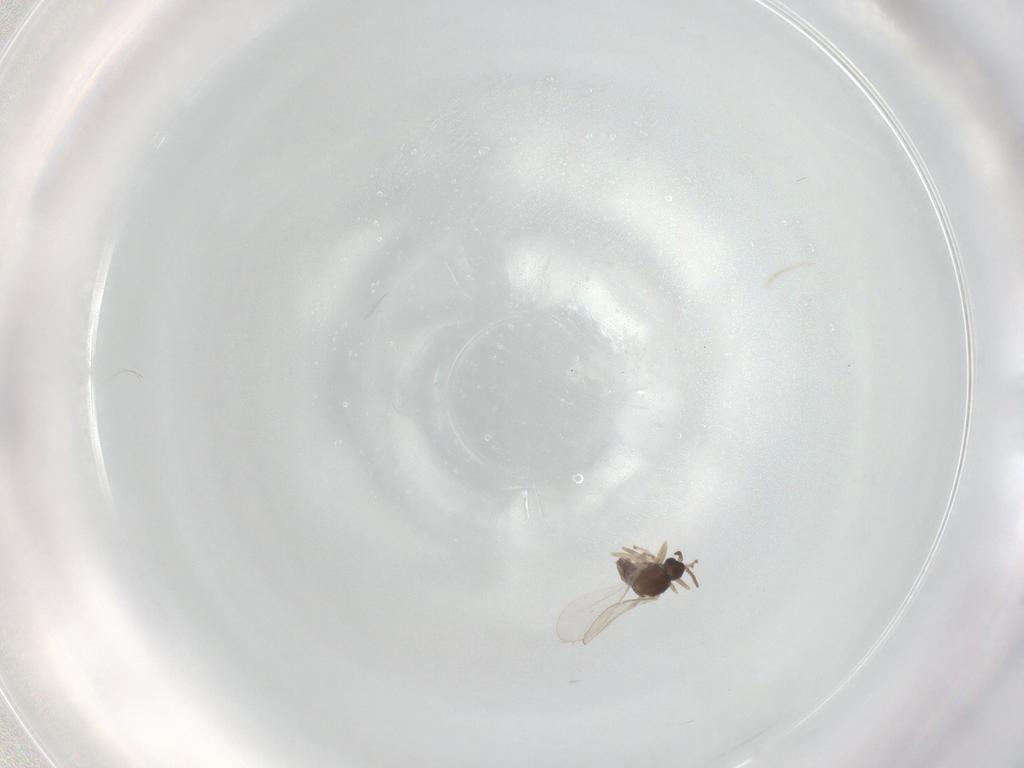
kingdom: Animalia
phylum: Arthropoda
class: Insecta
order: Diptera
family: Cecidomyiidae
